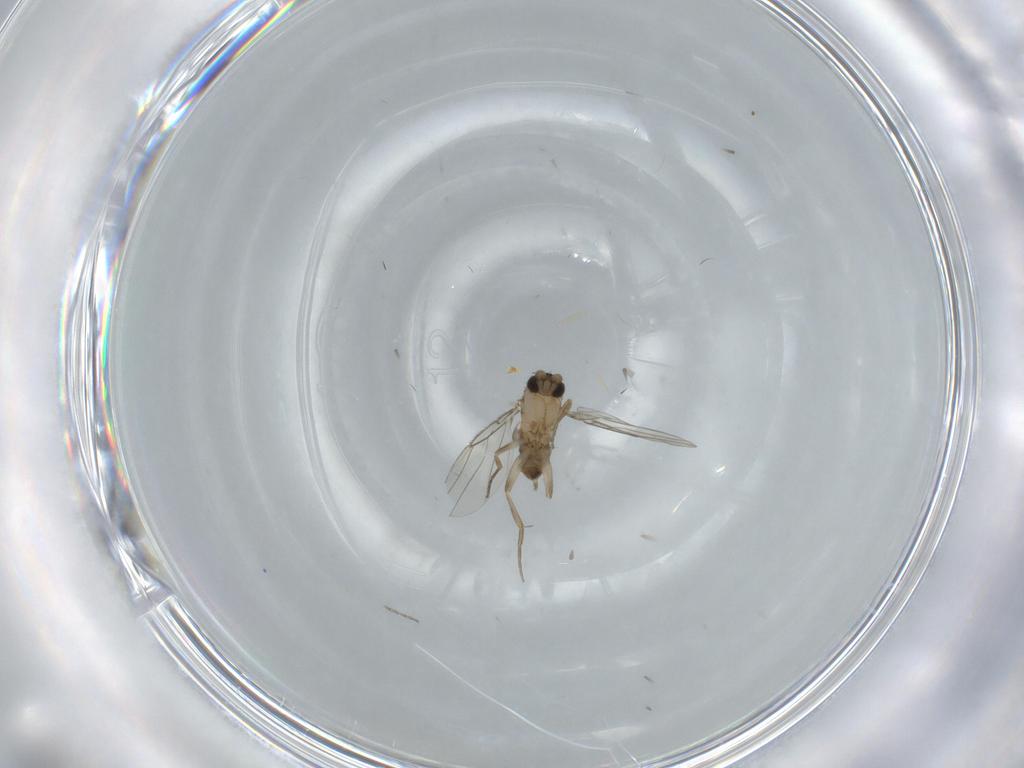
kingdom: Animalia
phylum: Arthropoda
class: Insecta
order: Diptera
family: Phoridae
